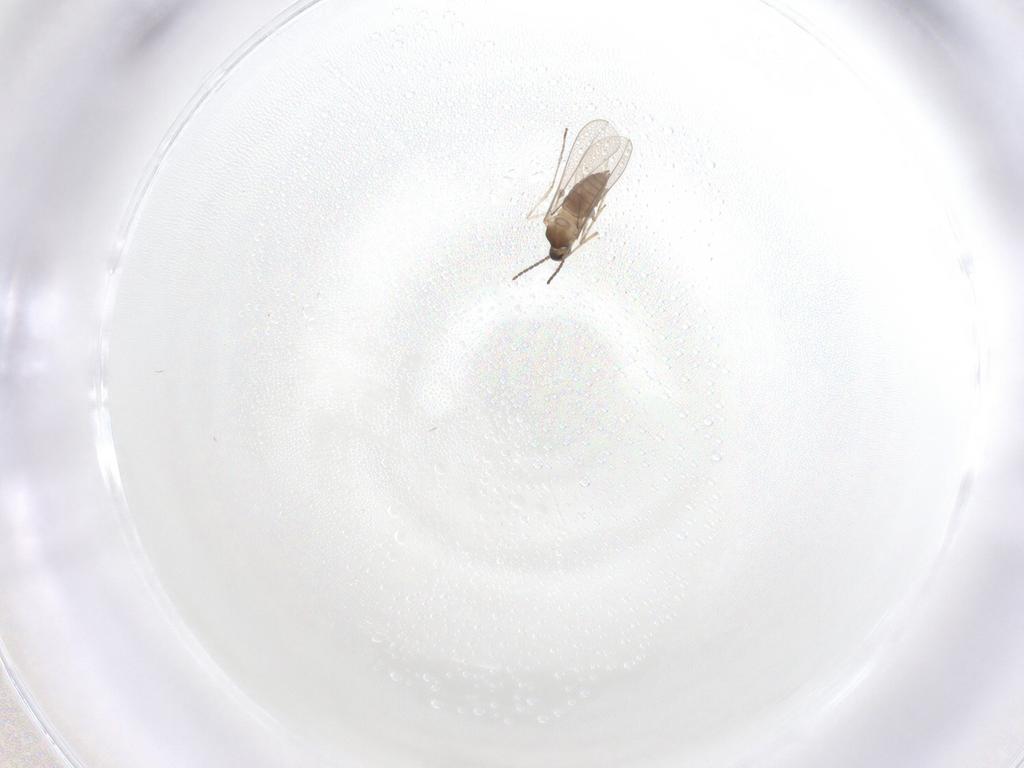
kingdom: Animalia
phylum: Arthropoda
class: Insecta
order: Diptera
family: Cecidomyiidae
